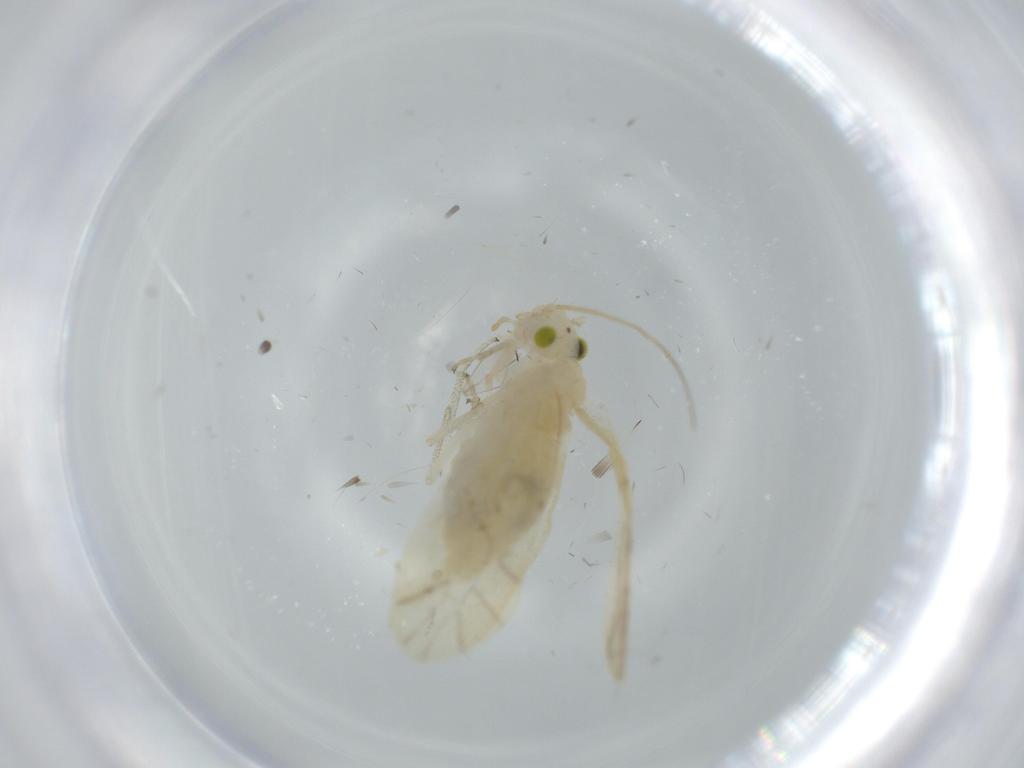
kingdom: Animalia
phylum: Arthropoda
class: Insecta
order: Psocodea
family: Caeciliusidae
